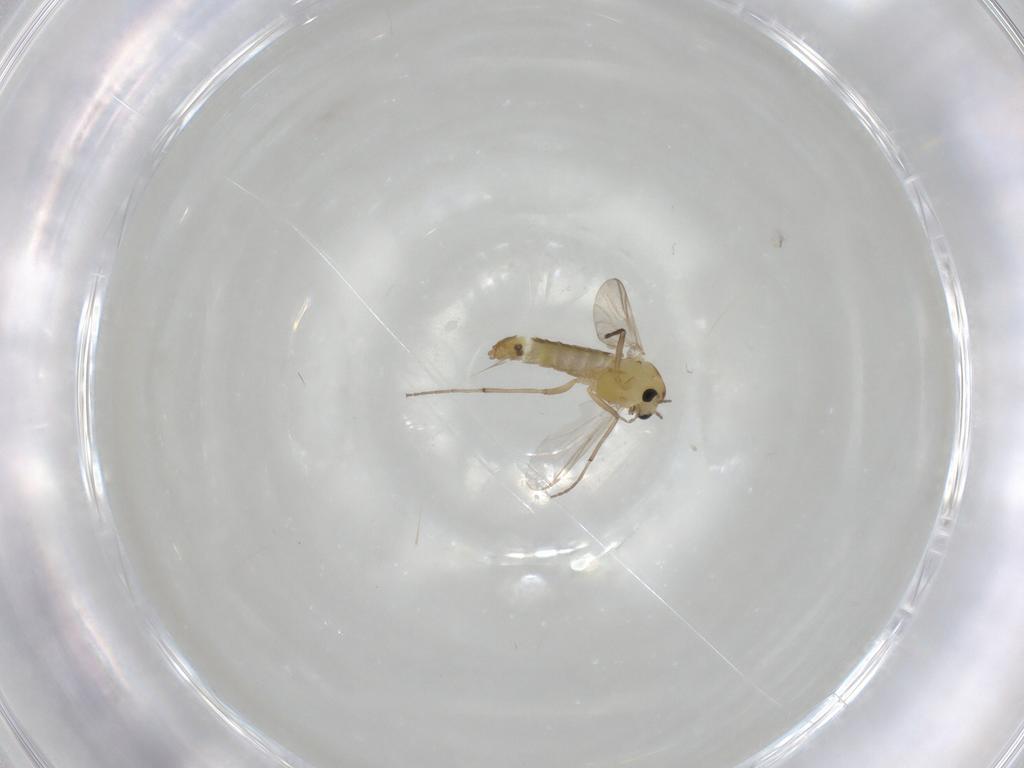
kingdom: Animalia
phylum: Arthropoda
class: Insecta
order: Diptera
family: Chironomidae
